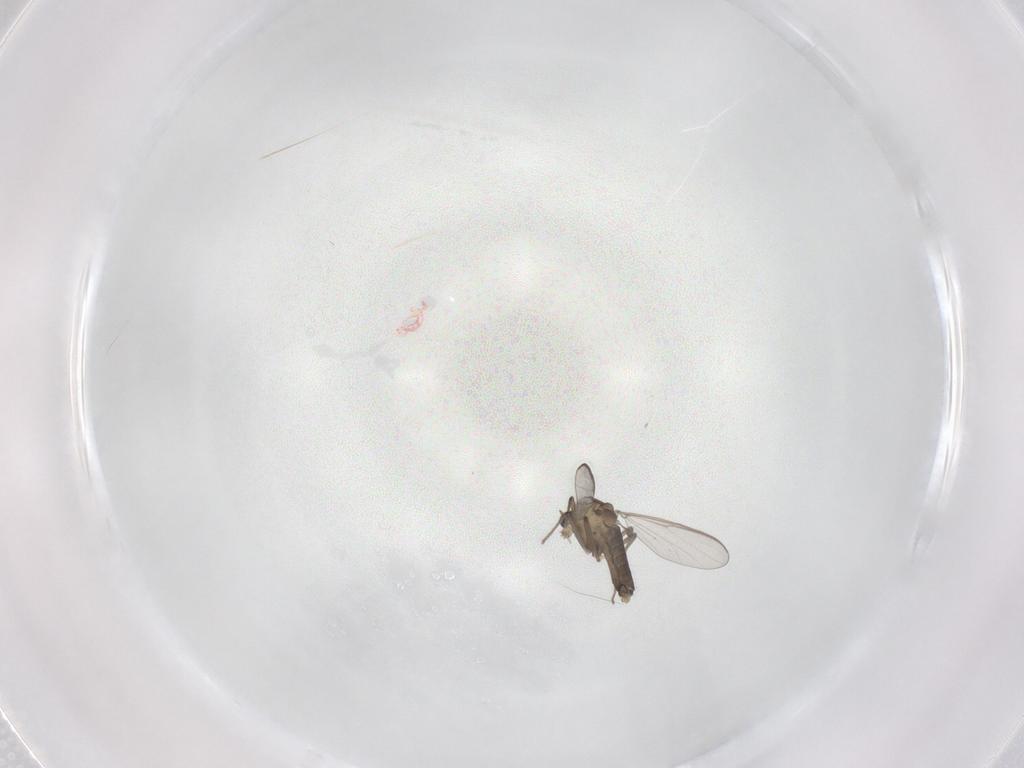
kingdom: Animalia
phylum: Arthropoda
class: Insecta
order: Diptera
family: Chironomidae
